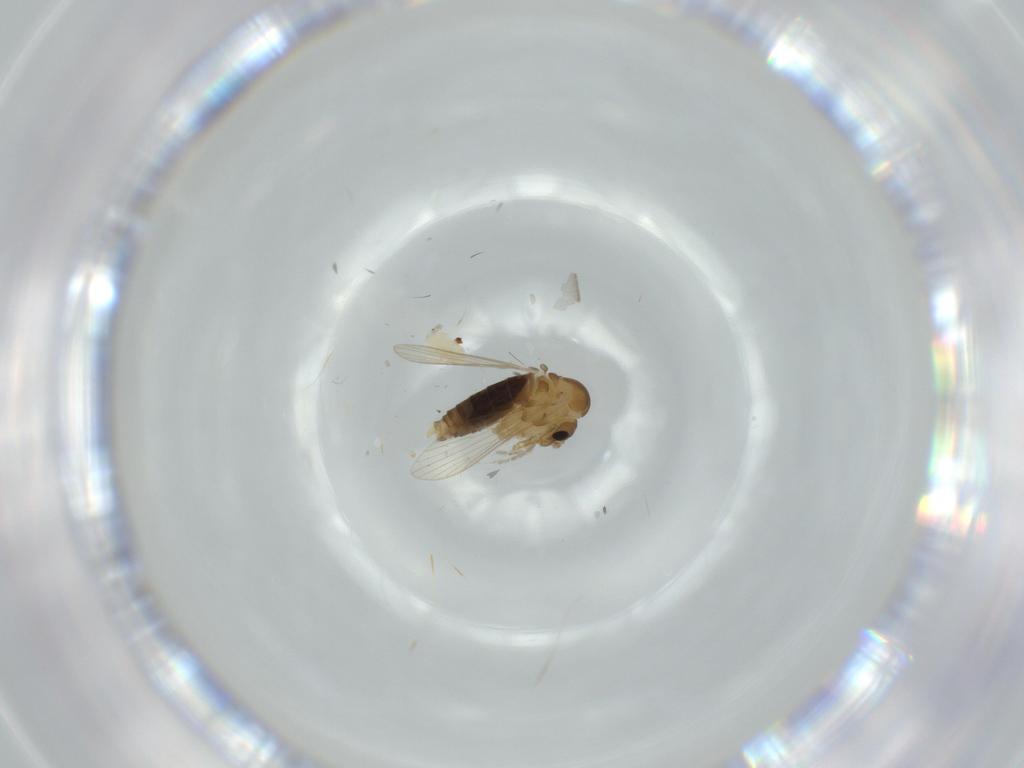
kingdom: Animalia
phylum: Arthropoda
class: Insecta
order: Diptera
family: Psychodidae
